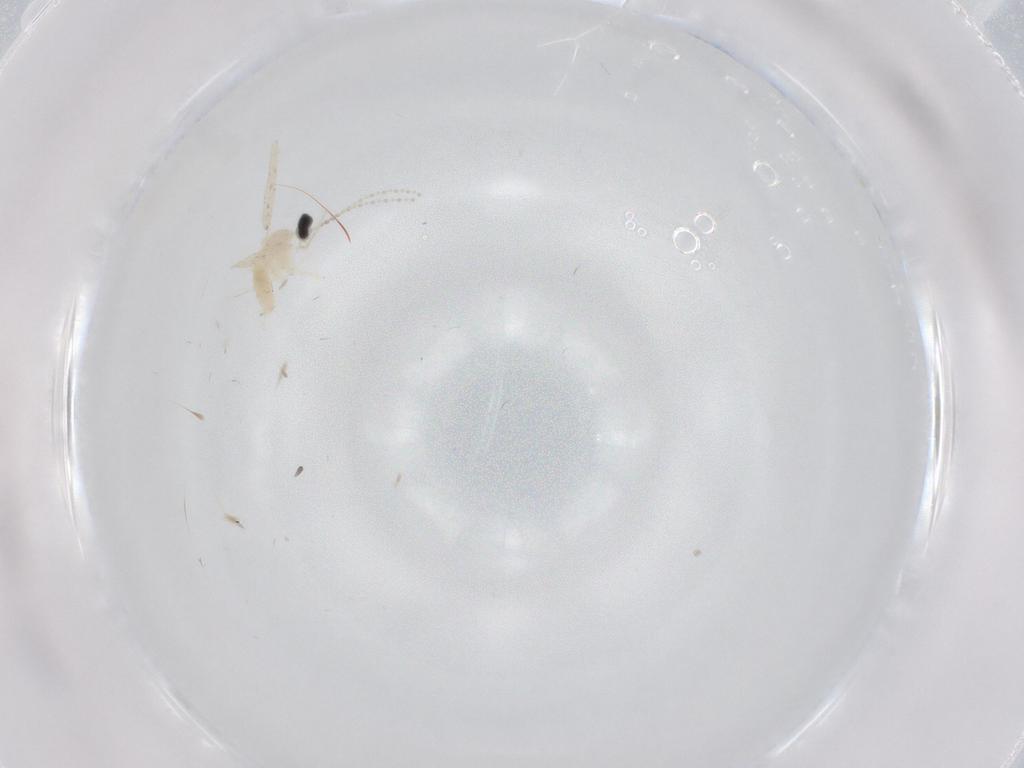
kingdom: Animalia
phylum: Arthropoda
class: Insecta
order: Diptera
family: Cecidomyiidae
